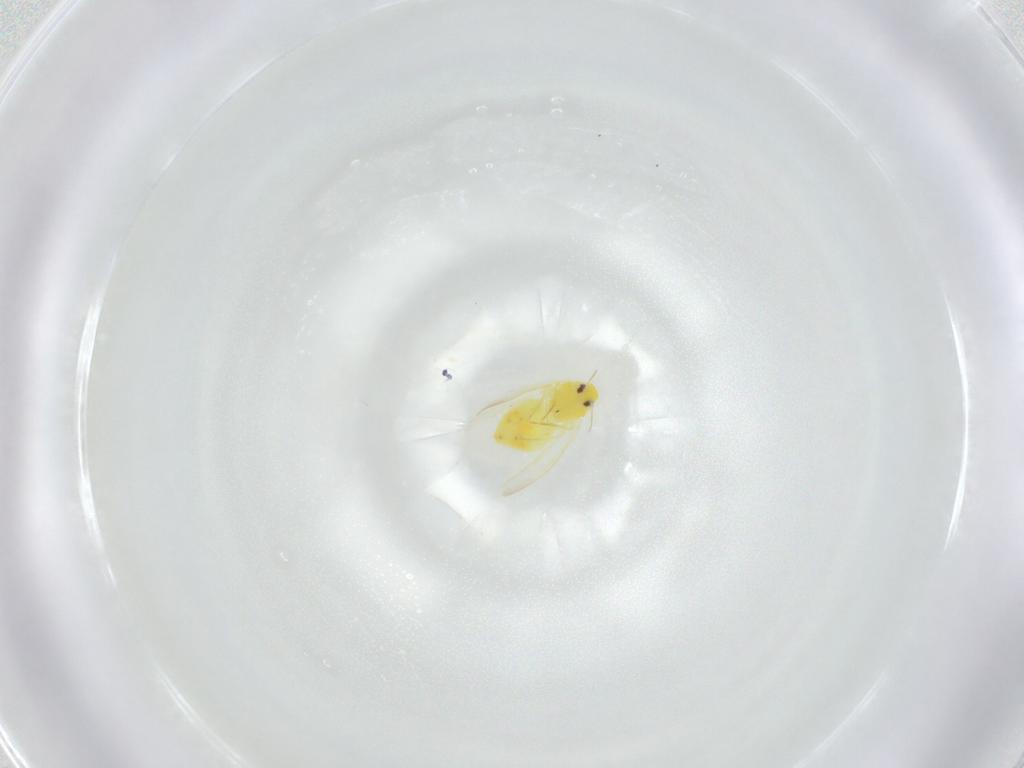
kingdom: Animalia
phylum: Arthropoda
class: Insecta
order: Hemiptera
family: Aleyrodidae
